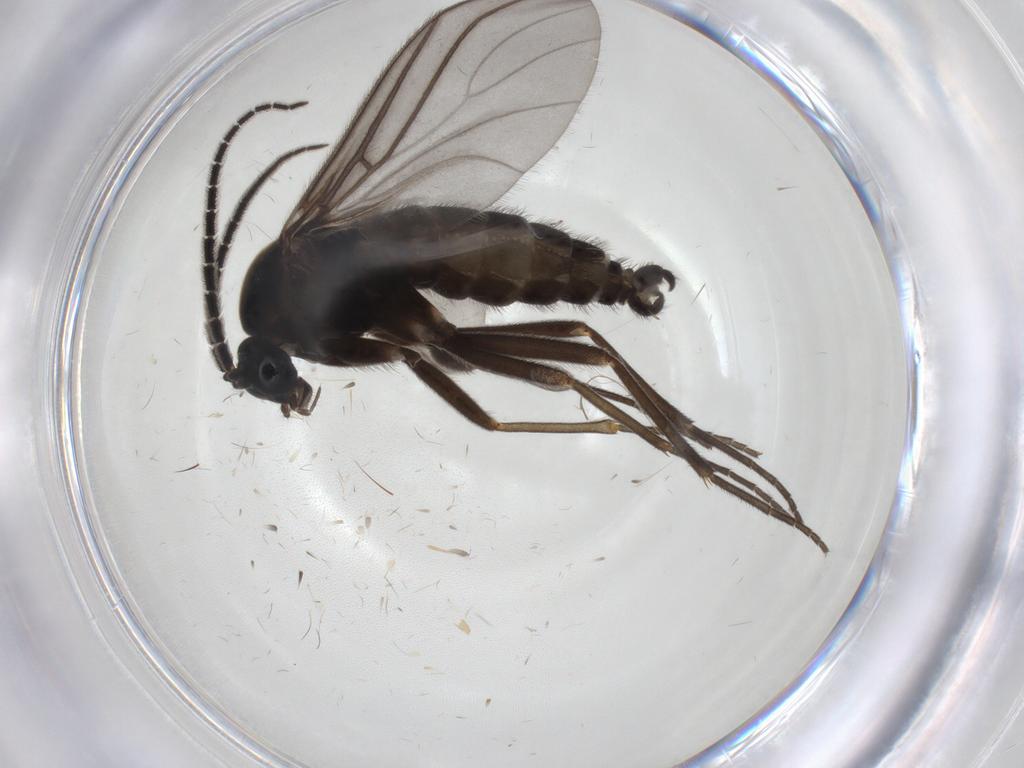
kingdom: Animalia
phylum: Arthropoda
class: Insecta
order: Diptera
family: Sciaridae
